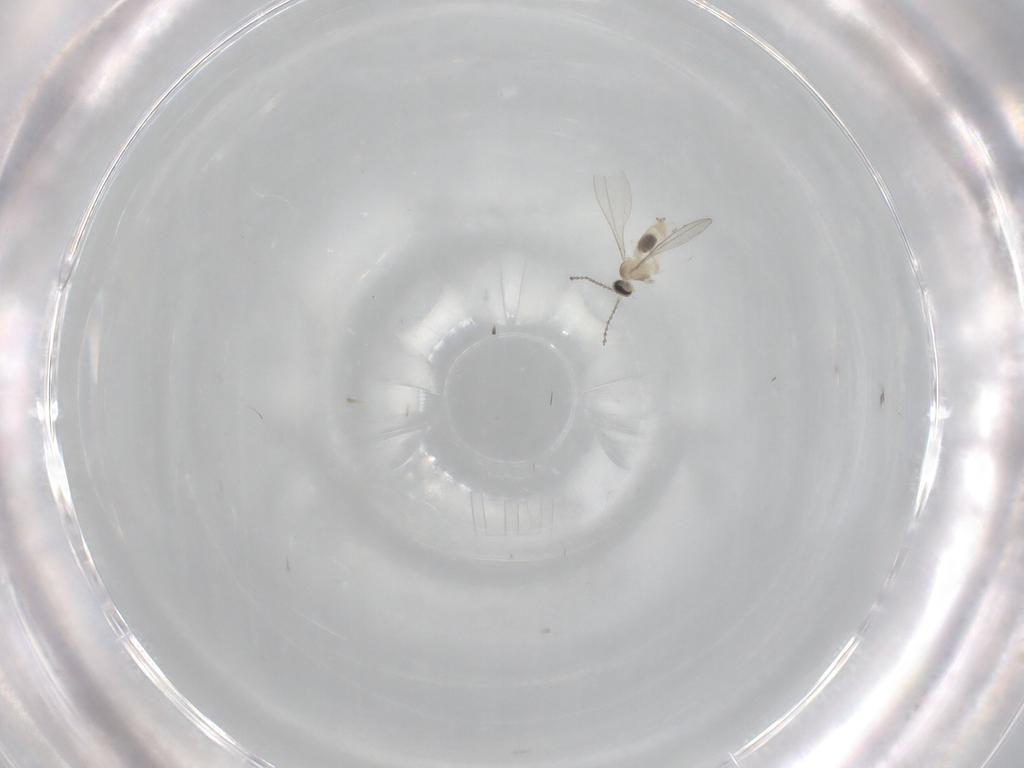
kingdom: Animalia
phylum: Arthropoda
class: Insecta
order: Diptera
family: Cecidomyiidae
